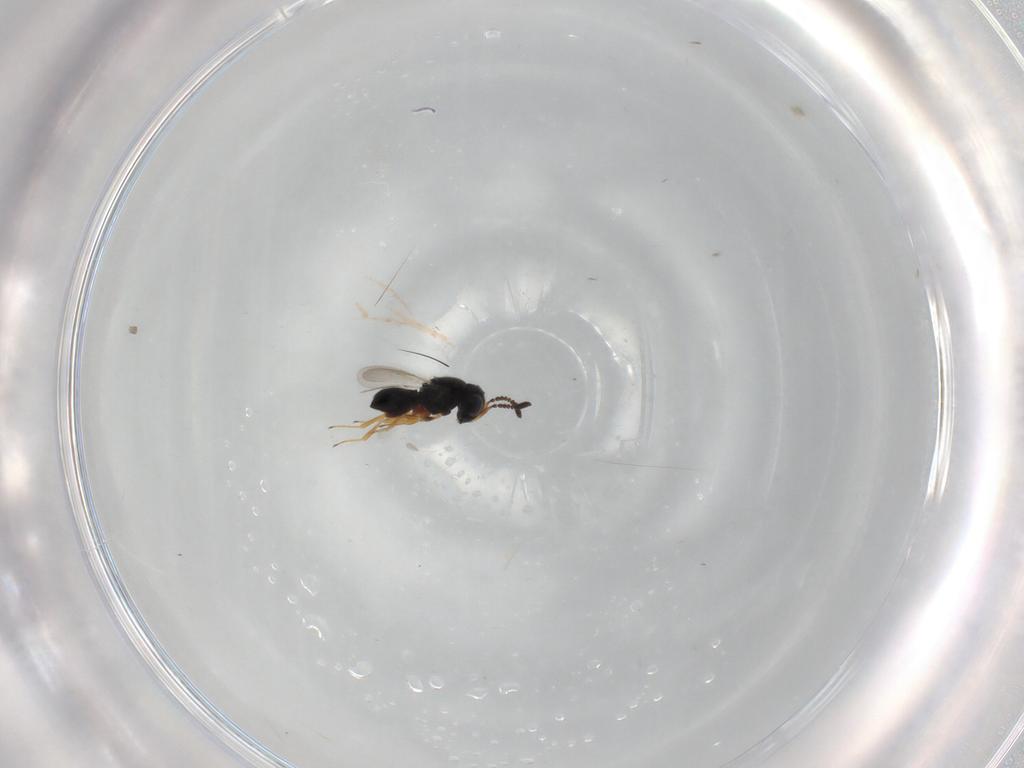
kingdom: Animalia
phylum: Arthropoda
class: Insecta
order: Hymenoptera
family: Scelionidae
